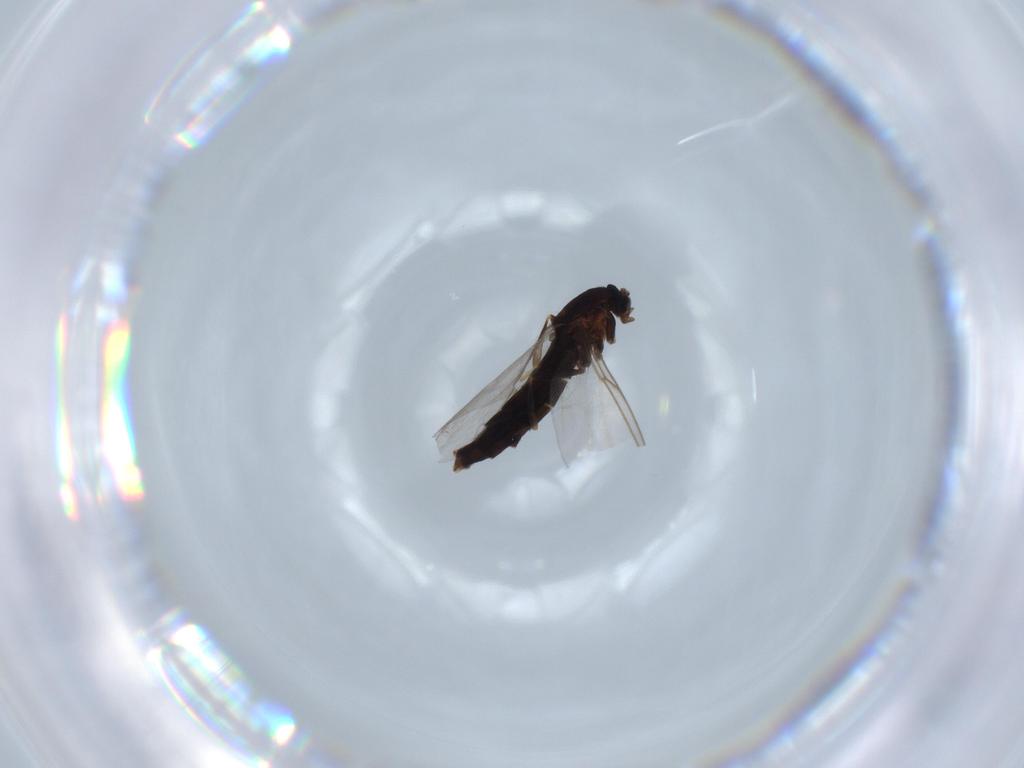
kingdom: Animalia
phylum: Arthropoda
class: Insecta
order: Diptera
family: Scatopsidae
